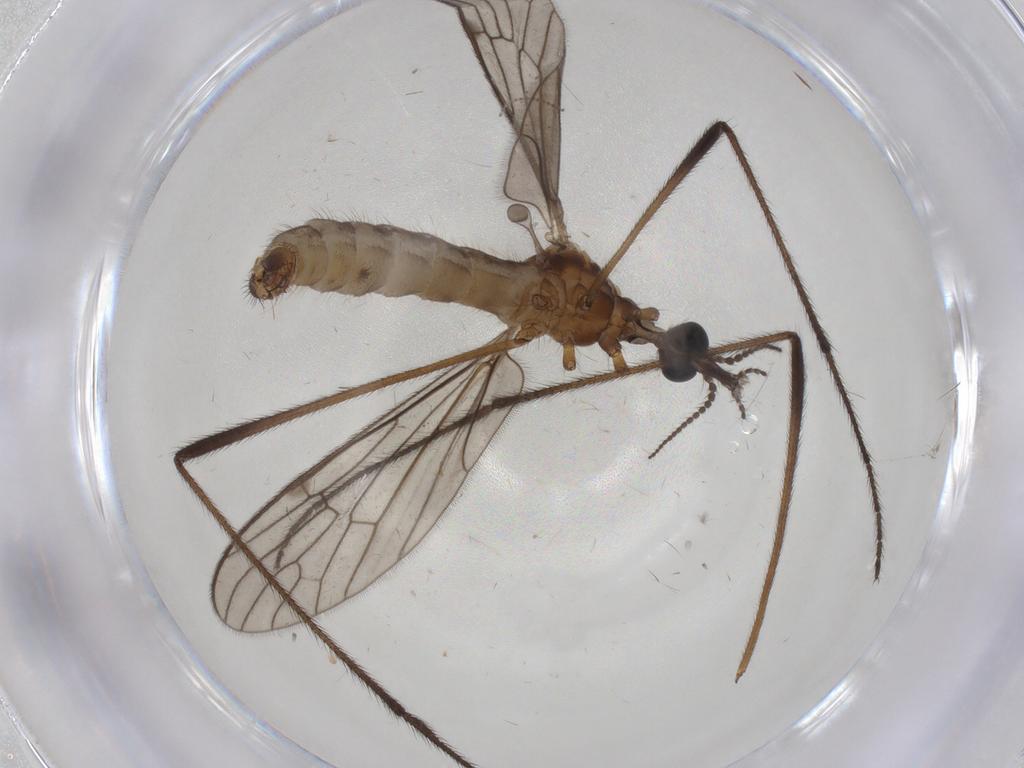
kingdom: Animalia
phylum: Arthropoda
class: Insecta
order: Diptera
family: Limoniidae
